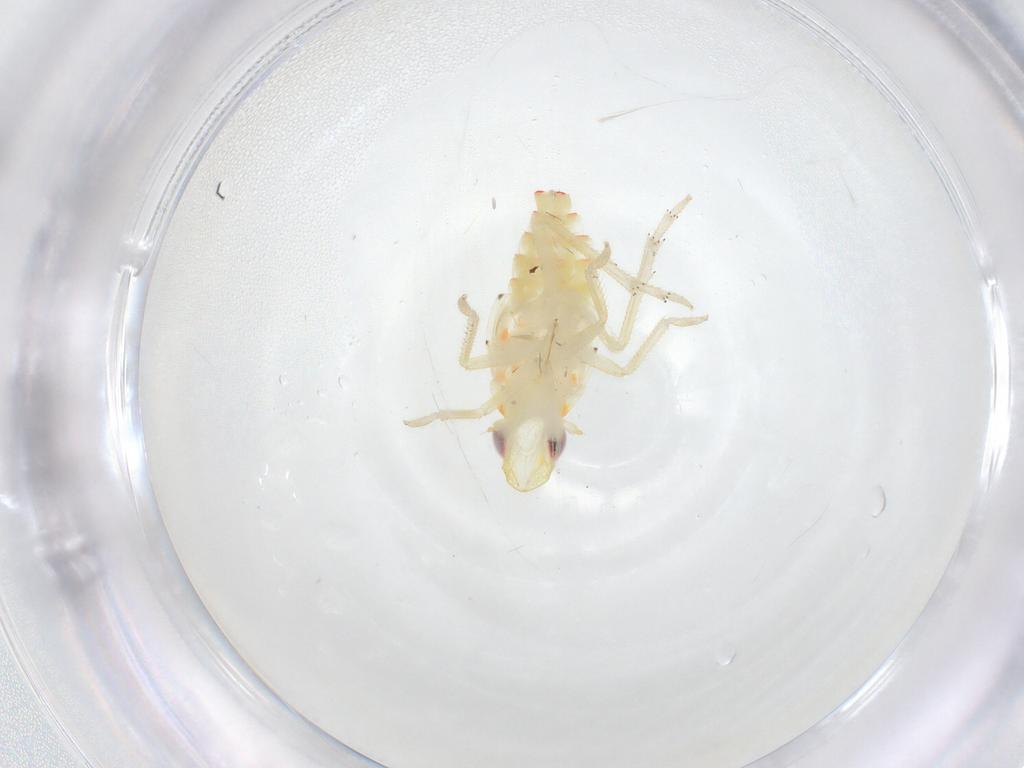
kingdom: Animalia
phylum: Arthropoda
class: Insecta
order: Hemiptera
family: Tropiduchidae
